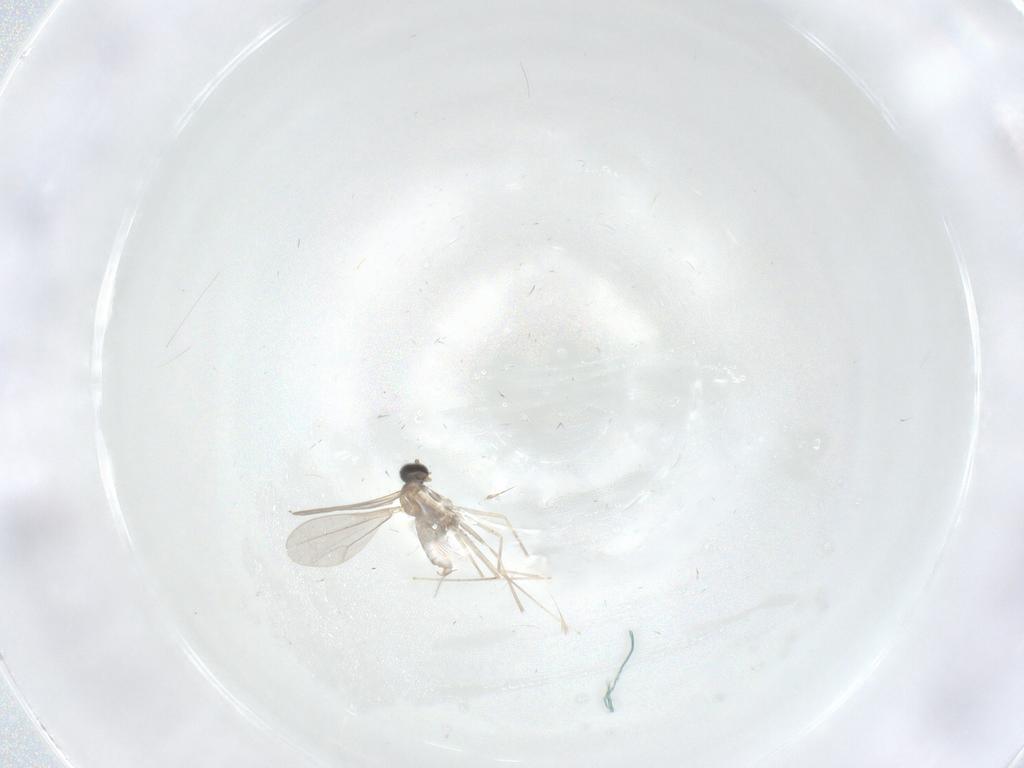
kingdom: Animalia
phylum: Arthropoda
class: Insecta
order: Diptera
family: Cecidomyiidae
